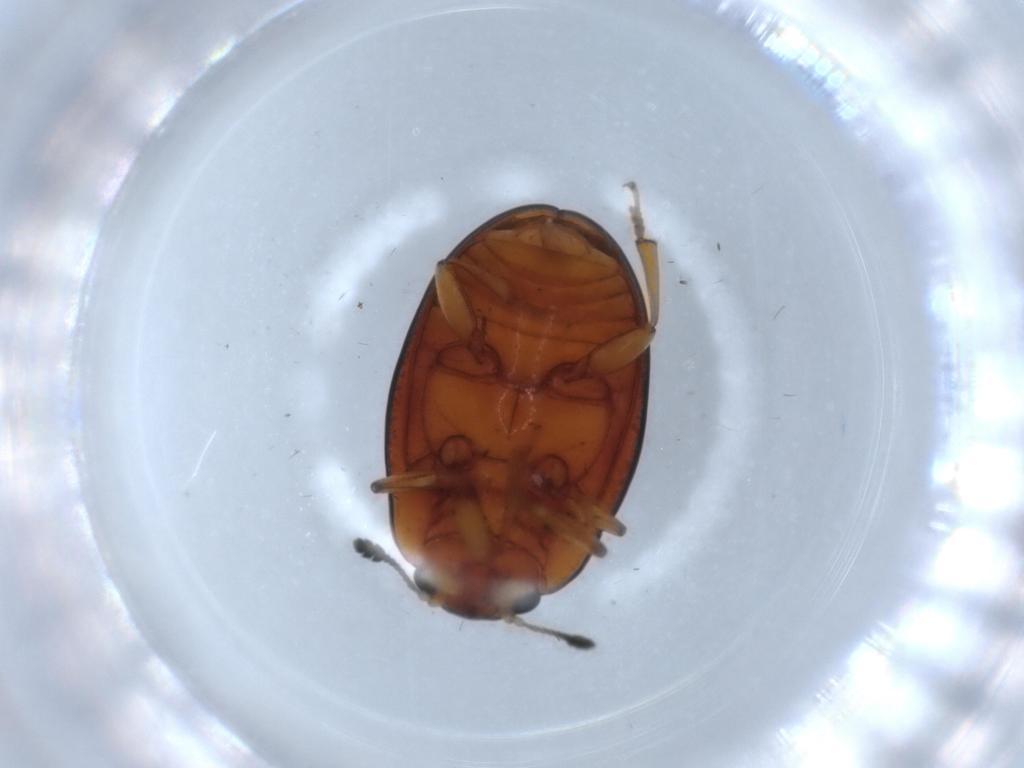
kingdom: Animalia
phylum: Arthropoda
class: Insecta
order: Coleoptera
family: Erotylidae
